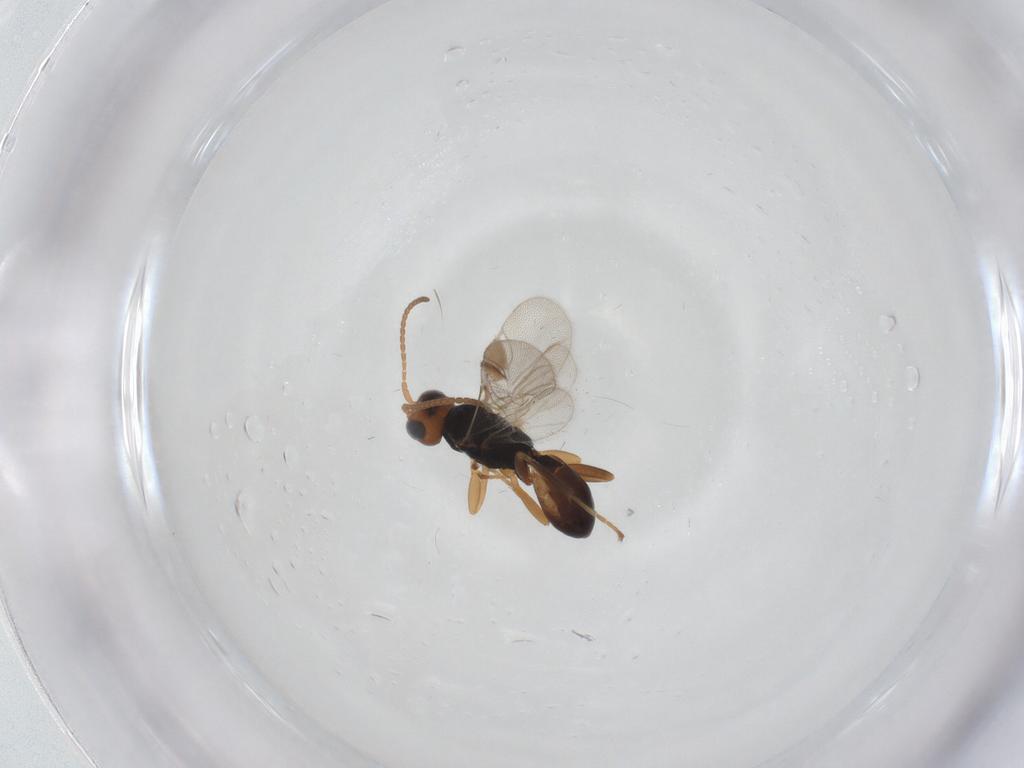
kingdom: Animalia
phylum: Arthropoda
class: Insecta
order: Hymenoptera
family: Braconidae
